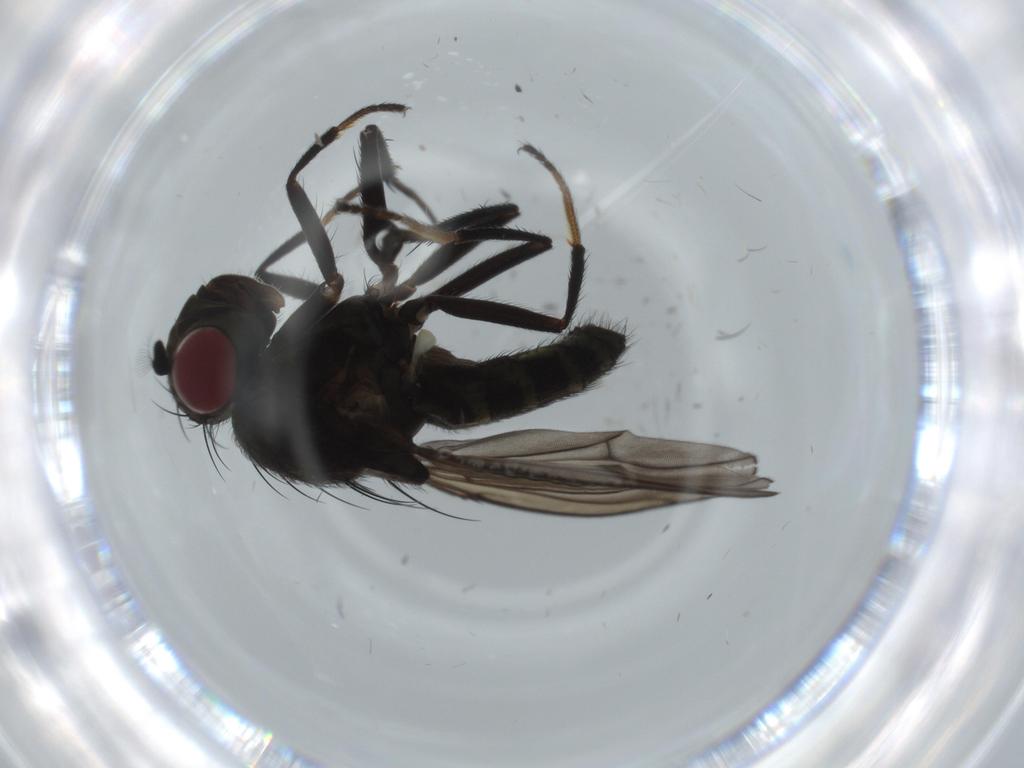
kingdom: Animalia
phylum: Arthropoda
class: Insecta
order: Diptera
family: Ephydridae
